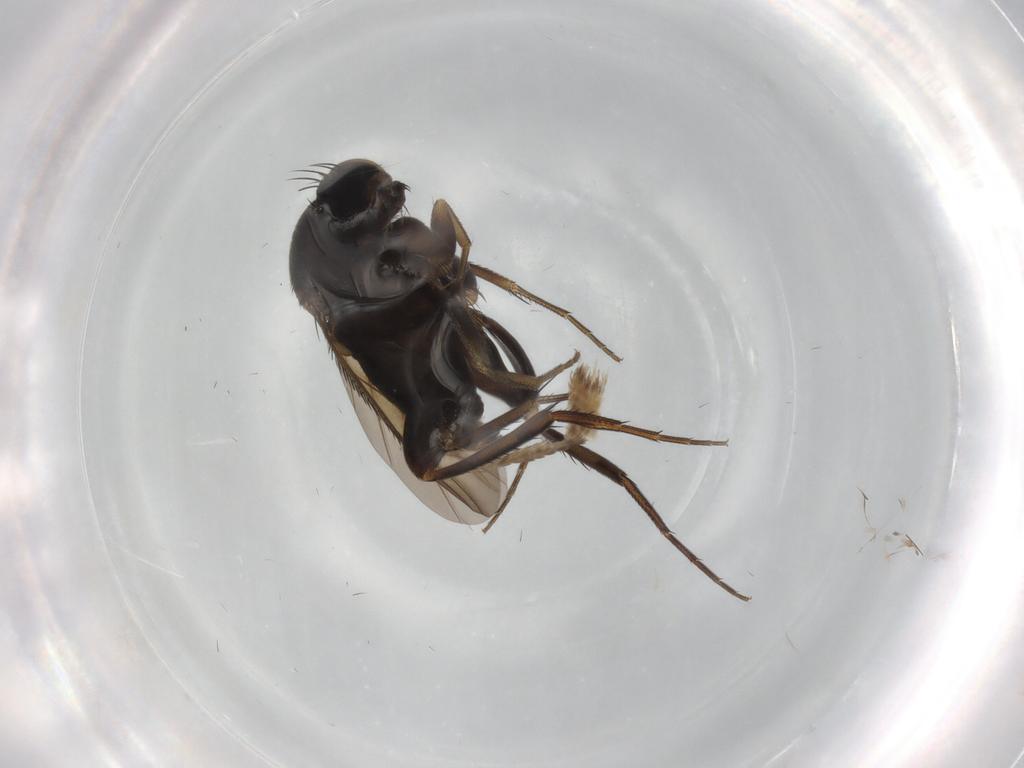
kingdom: Animalia
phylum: Arthropoda
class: Insecta
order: Diptera
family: Phoridae
